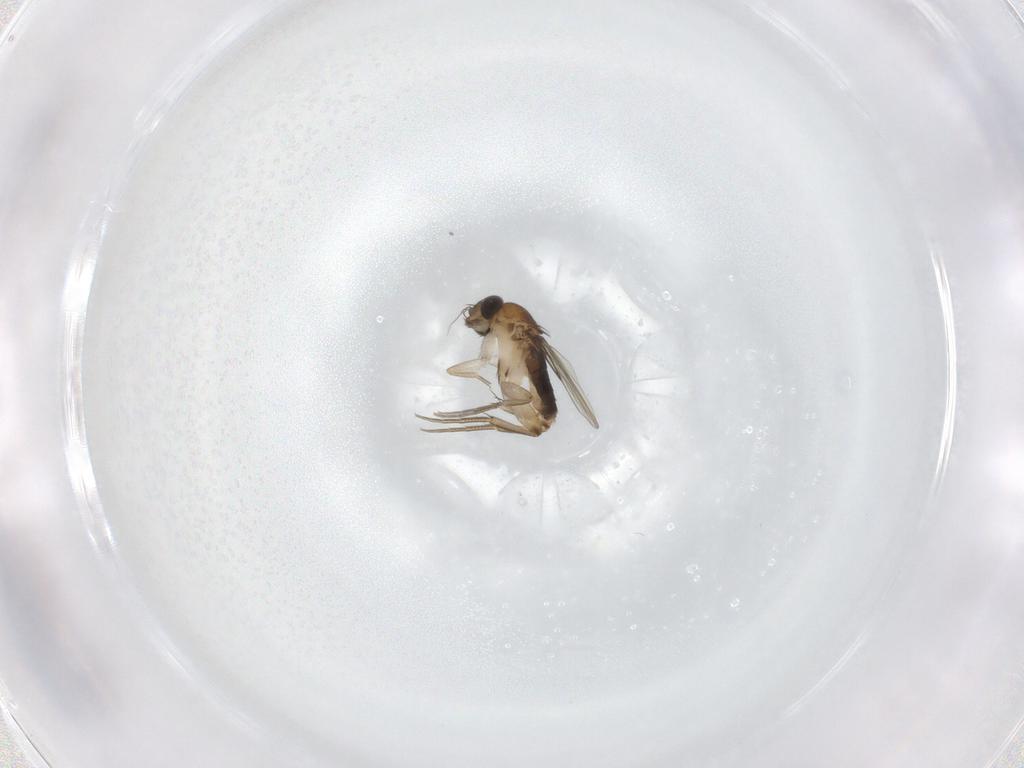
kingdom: Animalia
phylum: Arthropoda
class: Insecta
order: Diptera
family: Phoridae
